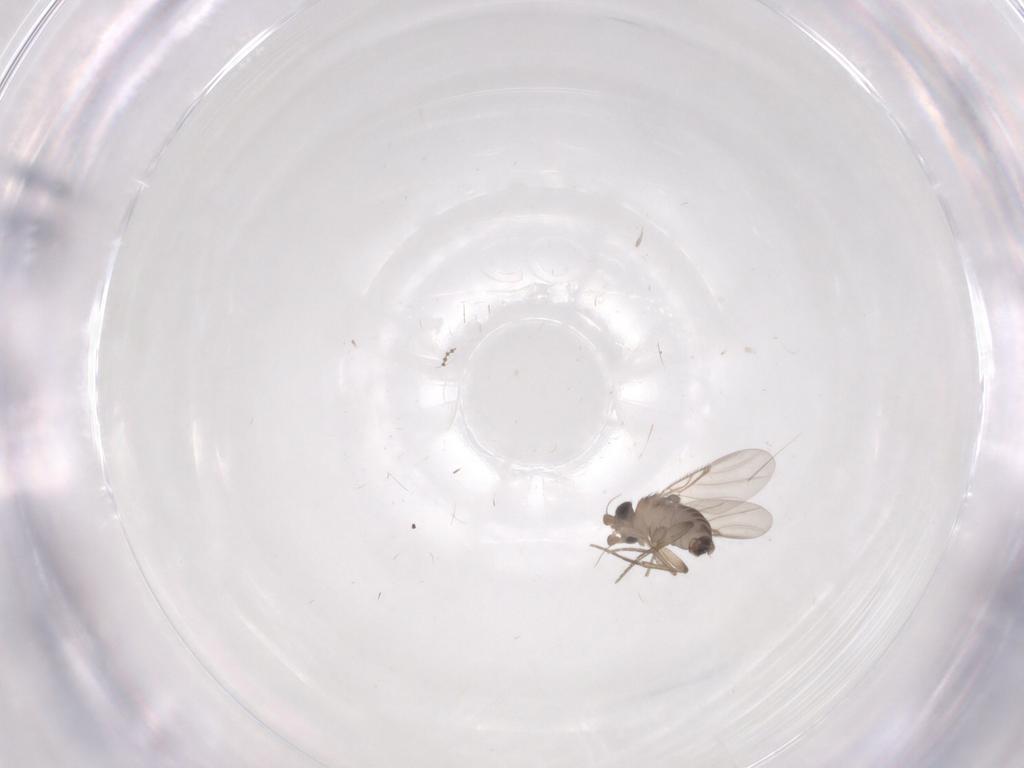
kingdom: Animalia
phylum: Arthropoda
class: Insecta
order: Diptera
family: Phoridae
